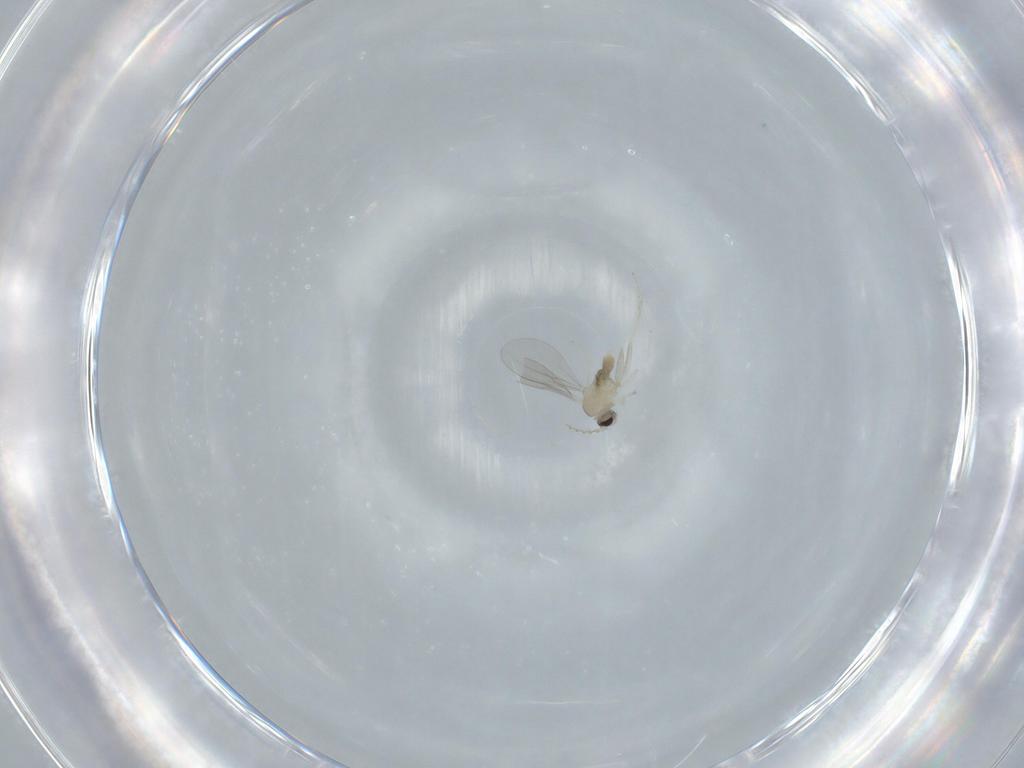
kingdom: Animalia
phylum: Arthropoda
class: Insecta
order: Diptera
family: Cecidomyiidae
